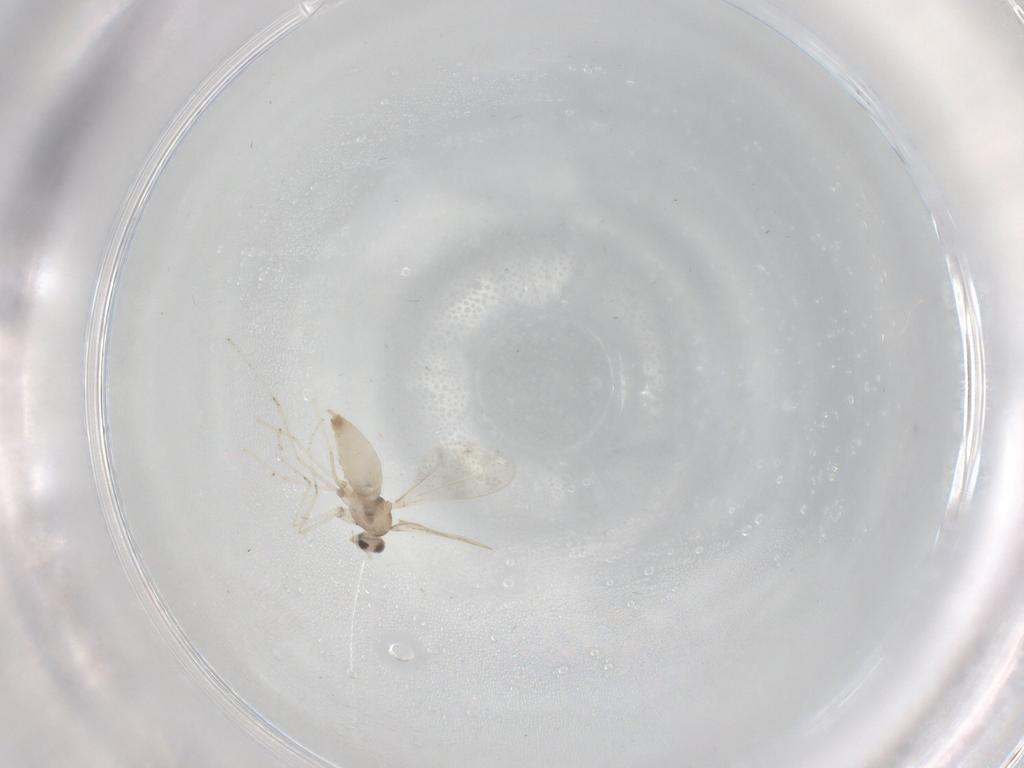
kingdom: Animalia
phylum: Arthropoda
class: Insecta
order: Diptera
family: Cecidomyiidae
